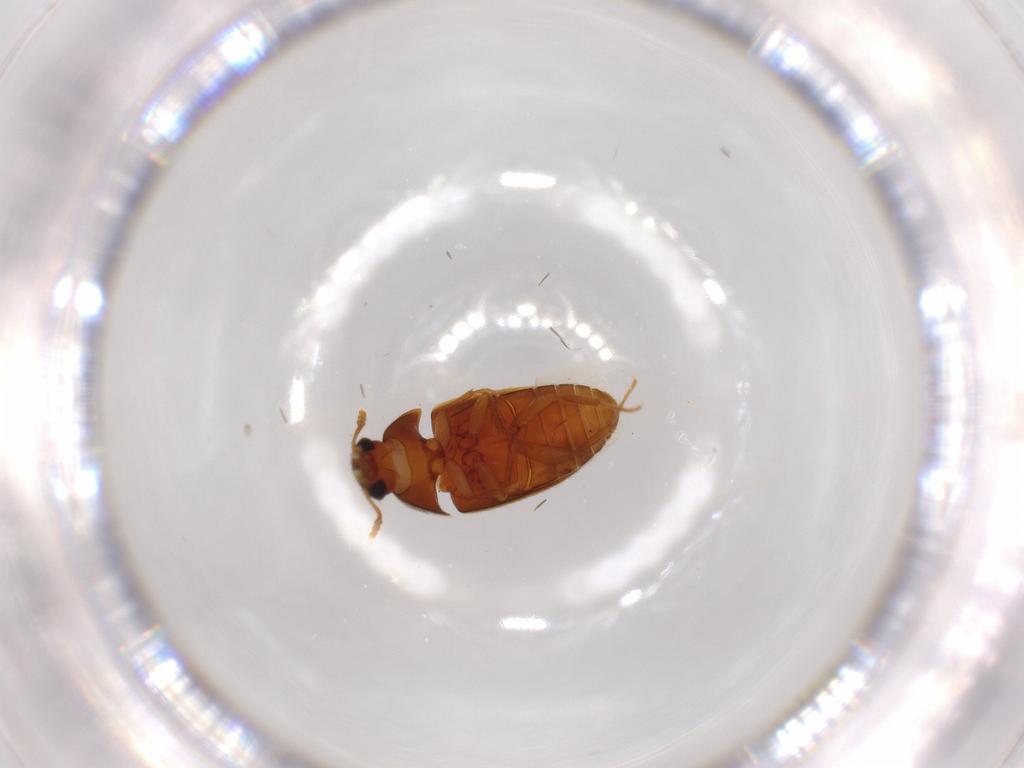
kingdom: Animalia
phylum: Arthropoda
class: Insecta
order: Coleoptera
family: Mycetophagidae
